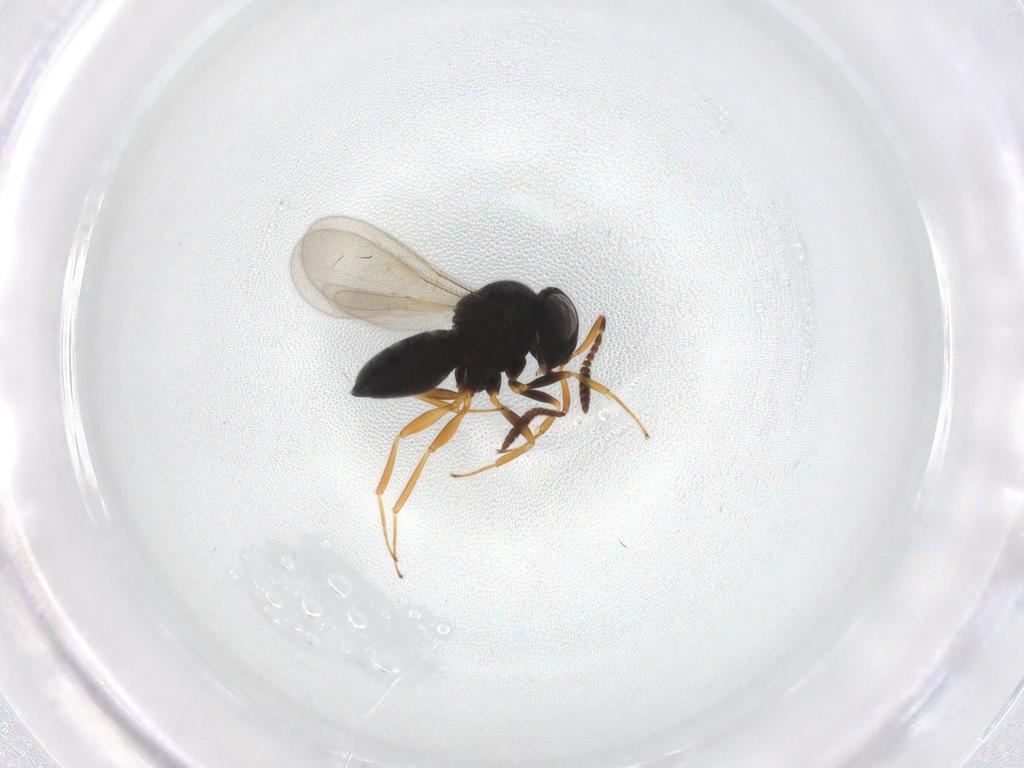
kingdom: Animalia
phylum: Arthropoda
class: Insecta
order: Hymenoptera
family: Scelionidae
